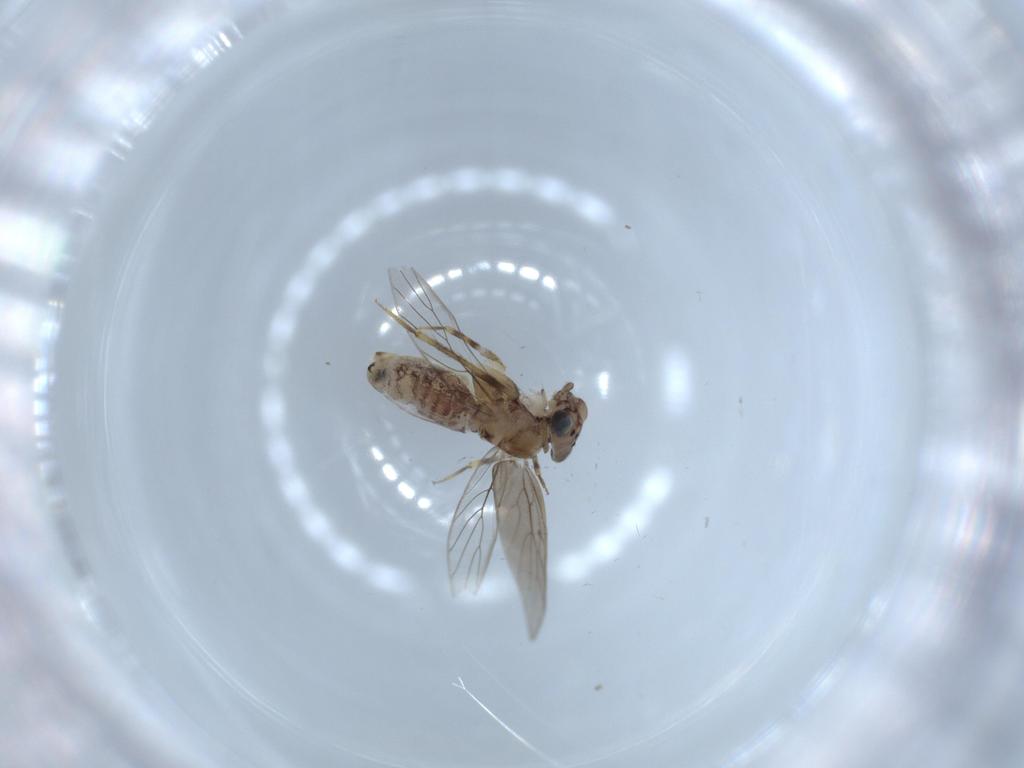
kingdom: Animalia
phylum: Arthropoda
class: Insecta
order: Psocodea
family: Lepidopsocidae
